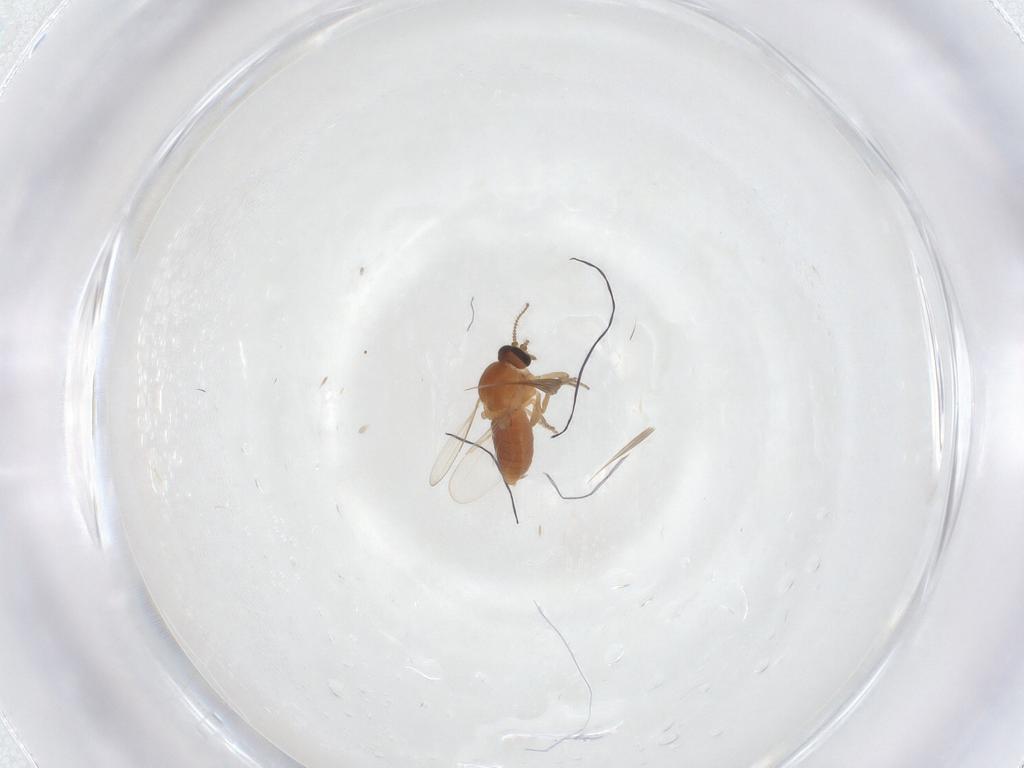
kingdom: Animalia
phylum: Arthropoda
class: Insecta
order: Diptera
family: Ceratopogonidae
